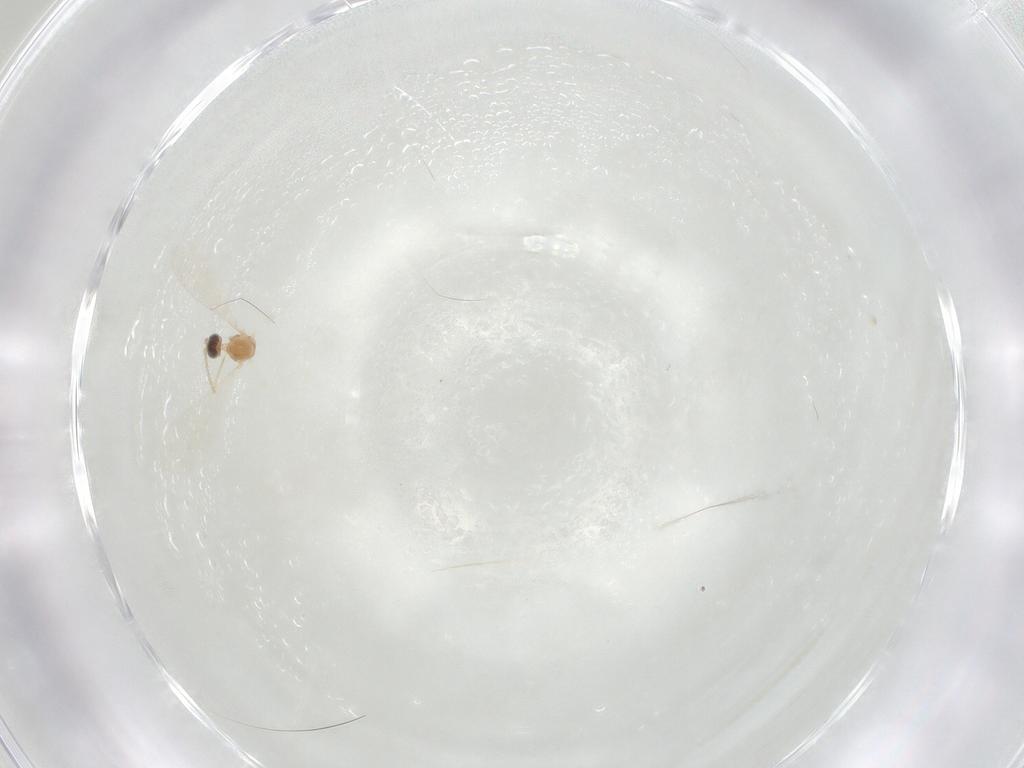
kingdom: Animalia
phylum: Arthropoda
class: Insecta
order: Diptera
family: Cecidomyiidae
